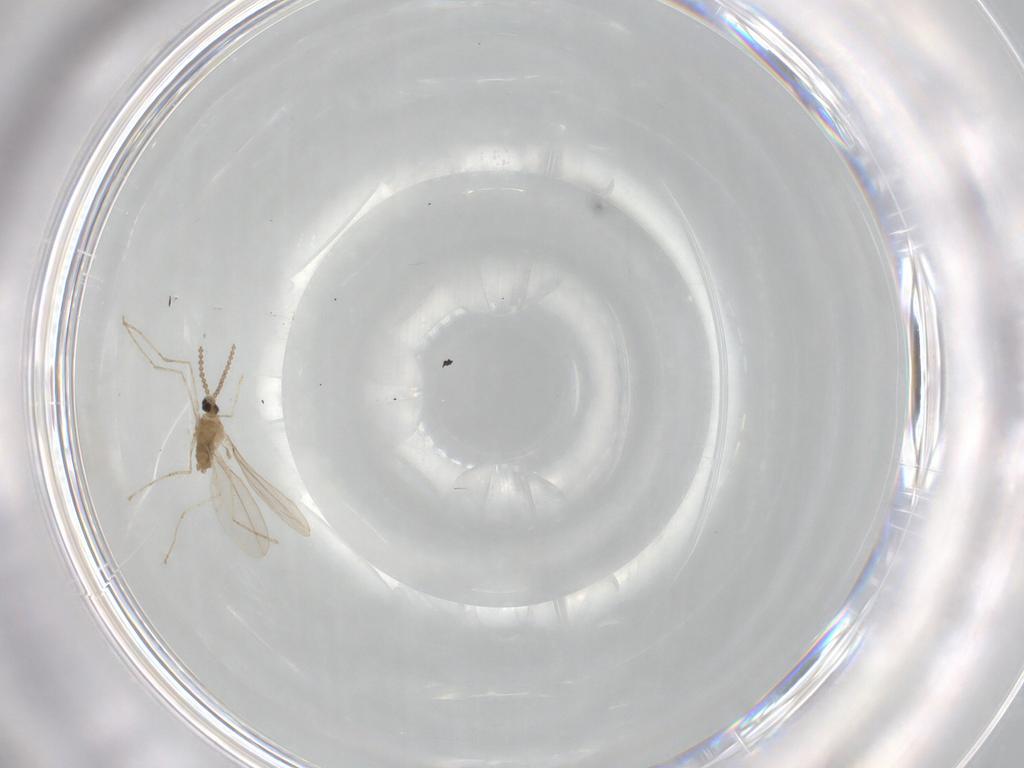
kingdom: Animalia
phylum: Arthropoda
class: Insecta
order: Diptera
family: Cecidomyiidae
